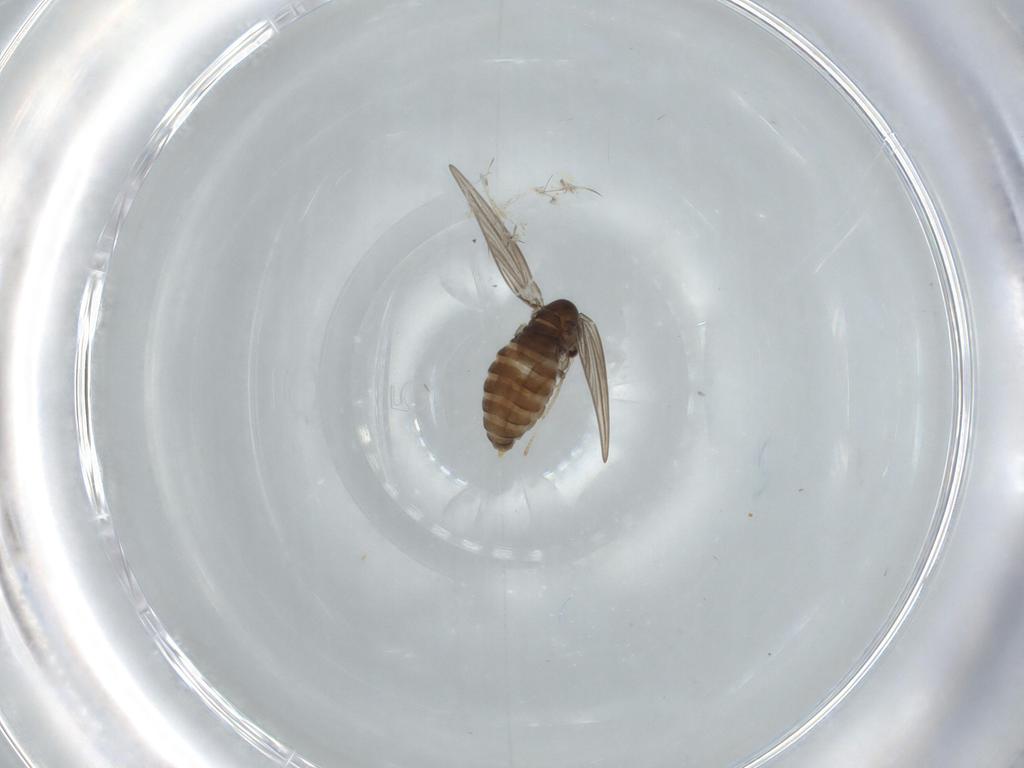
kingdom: Animalia
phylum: Arthropoda
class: Insecta
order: Diptera
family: Psychodidae
